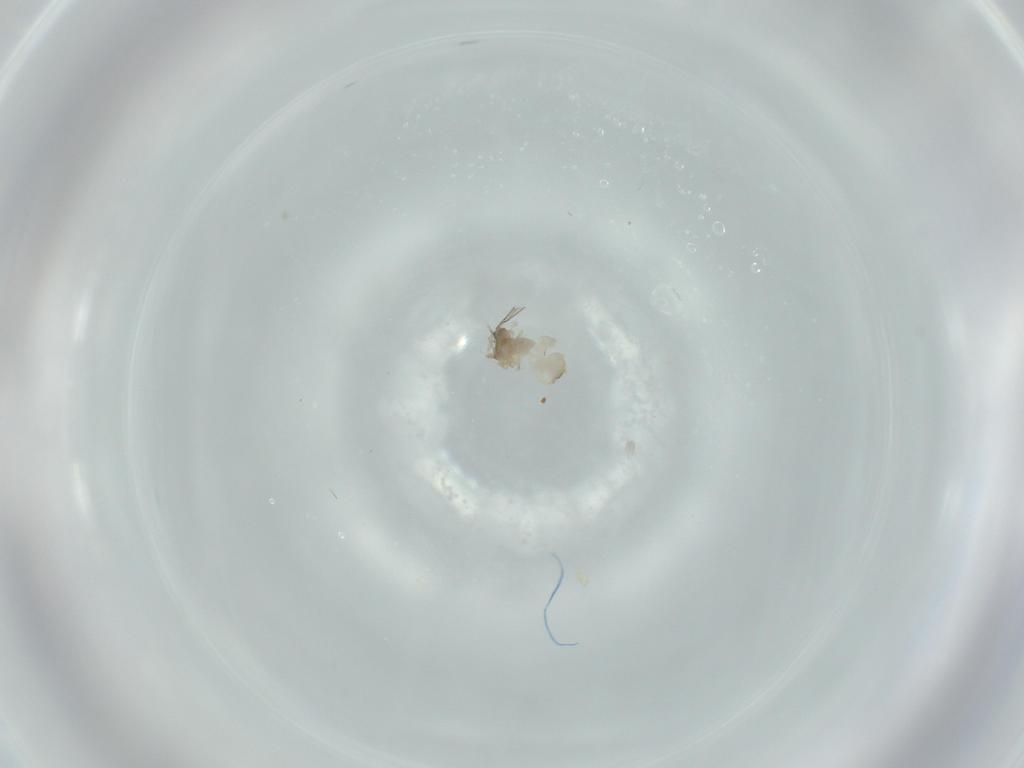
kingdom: Animalia
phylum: Arthropoda
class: Insecta
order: Diptera
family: Cecidomyiidae
